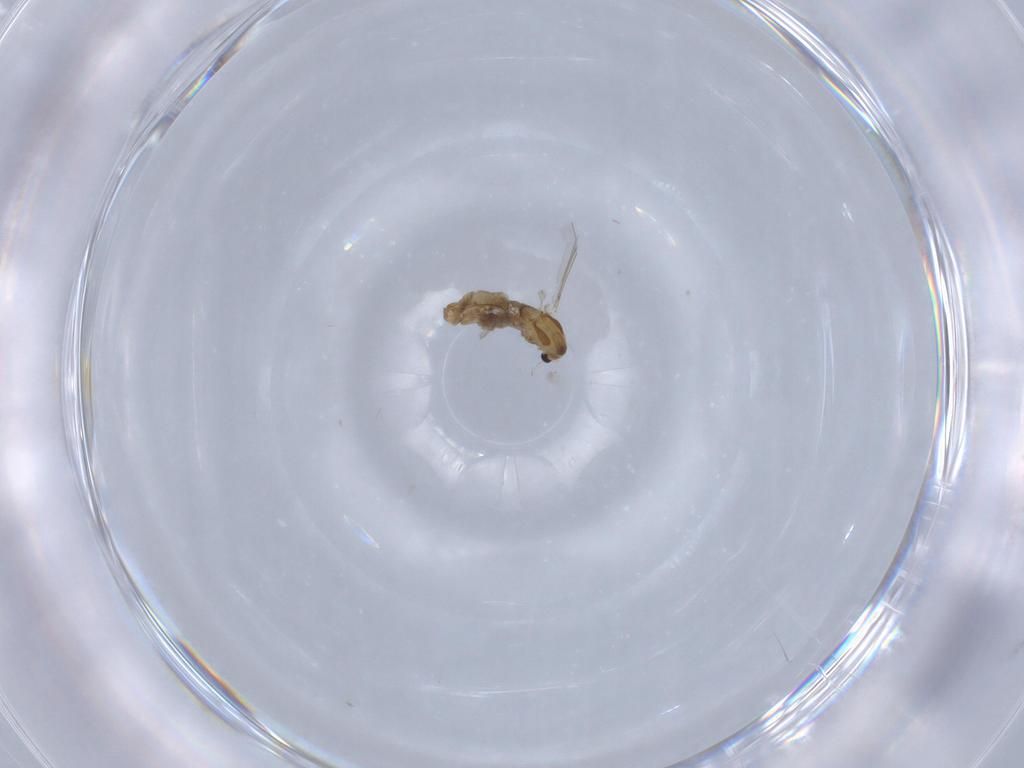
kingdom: Animalia
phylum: Arthropoda
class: Insecta
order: Diptera
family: Chironomidae
